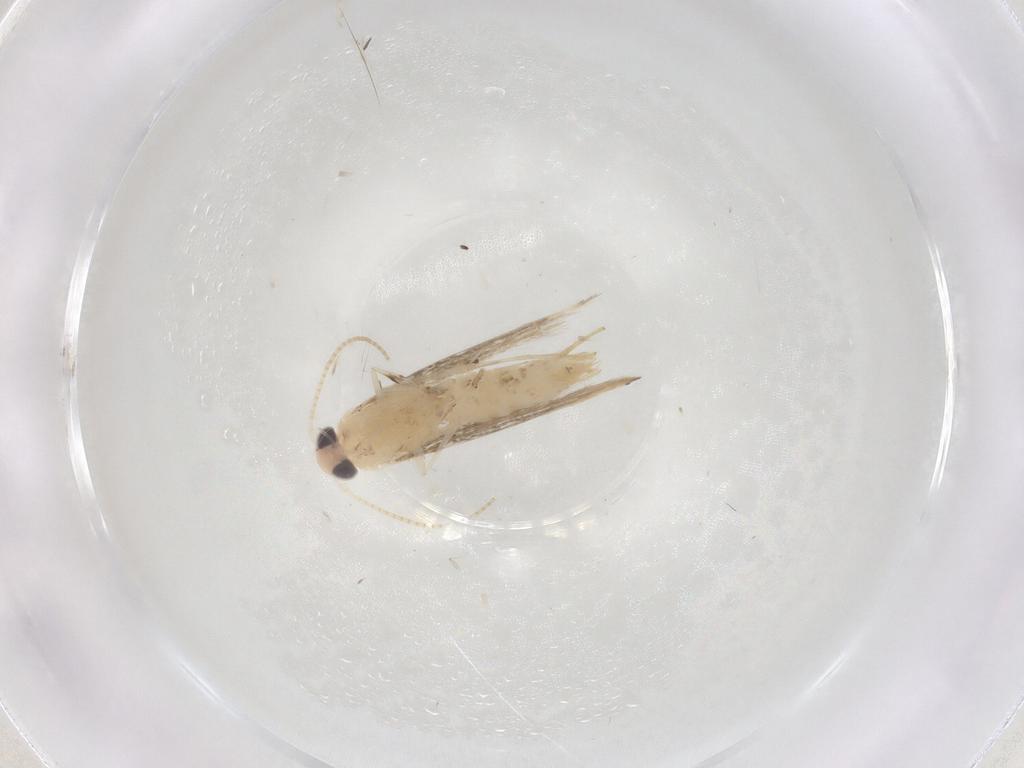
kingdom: Animalia
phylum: Arthropoda
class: Insecta
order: Lepidoptera
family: Gracillariidae
